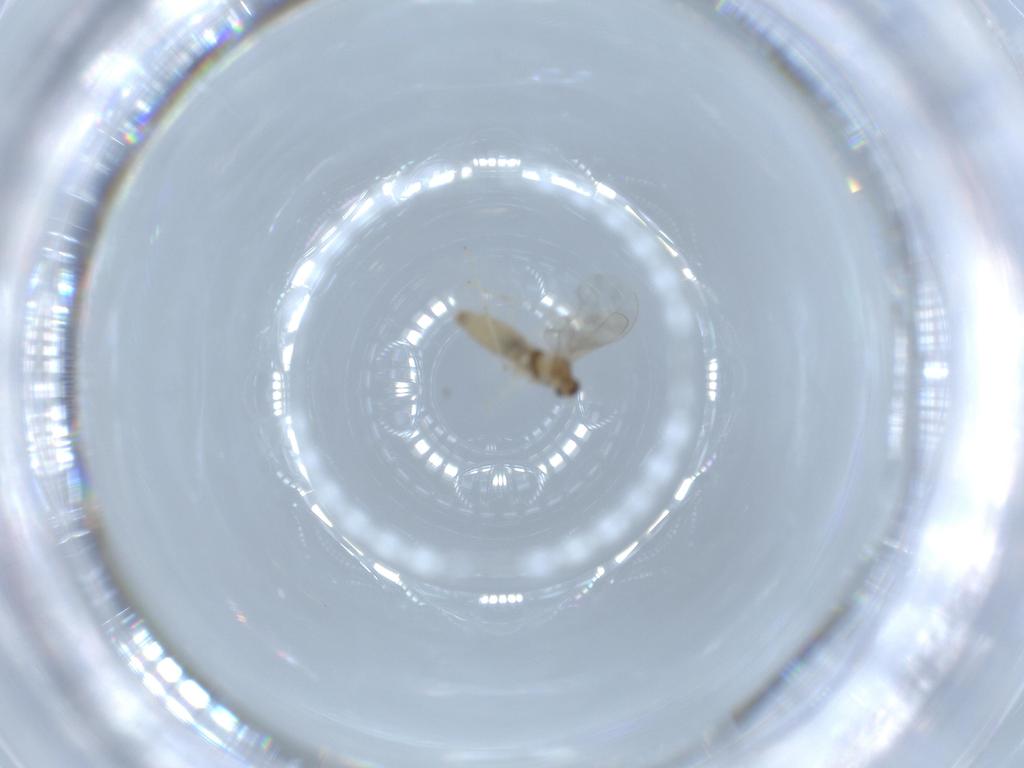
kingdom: Animalia
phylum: Arthropoda
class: Insecta
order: Diptera
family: Cecidomyiidae
